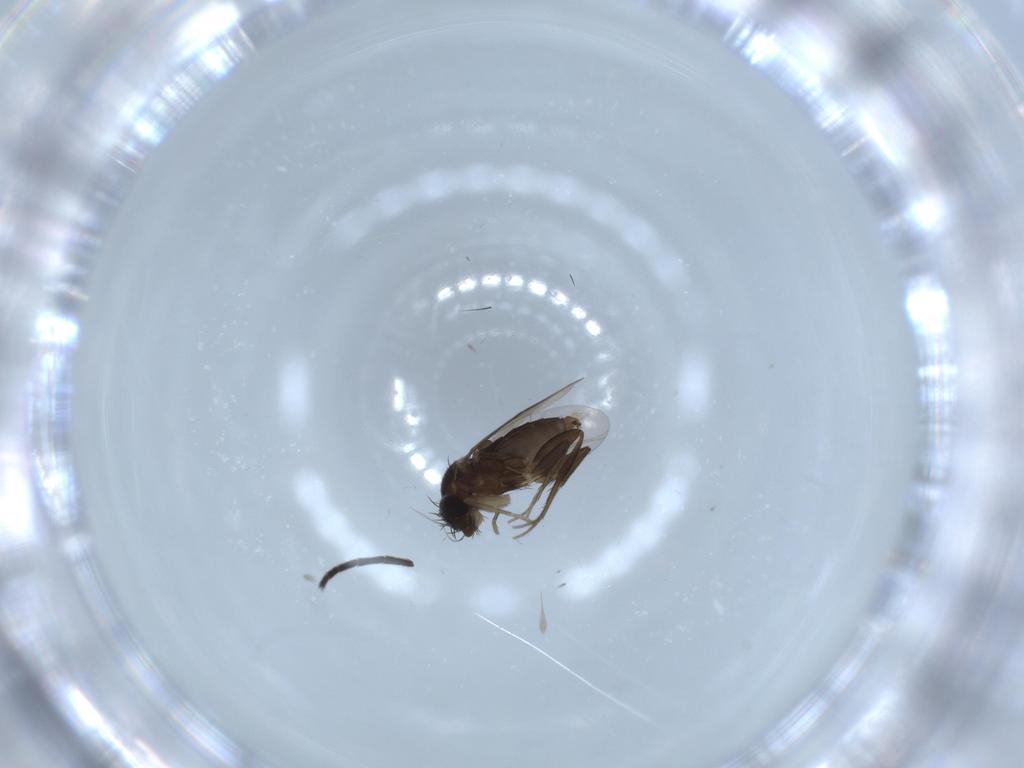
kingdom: Animalia
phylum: Arthropoda
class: Insecta
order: Diptera
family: Phoridae
